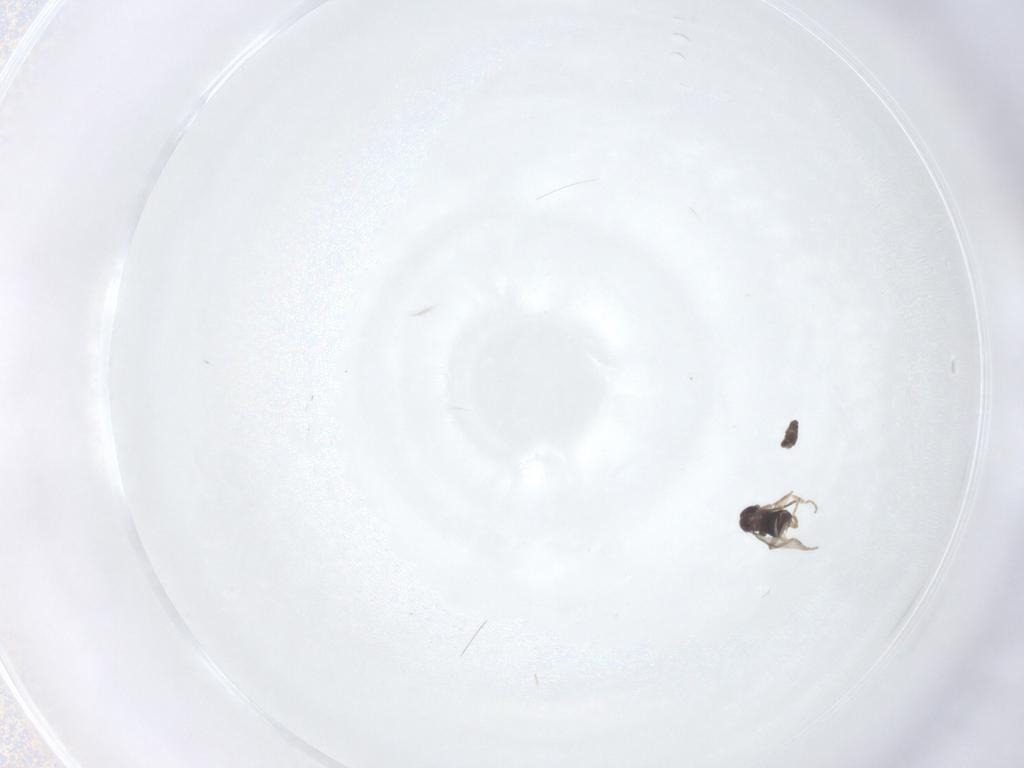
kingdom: Animalia
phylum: Arthropoda
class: Insecta
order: Diptera
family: Phoridae
